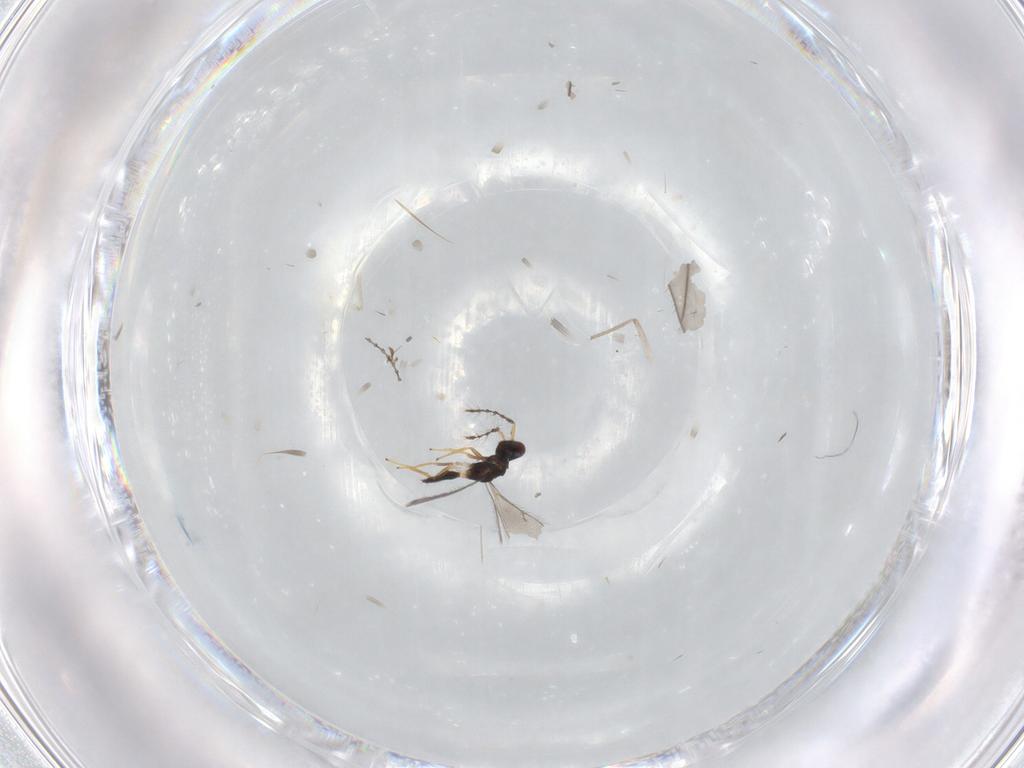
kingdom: Animalia
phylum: Arthropoda
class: Insecta
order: Hymenoptera
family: Eulophidae
